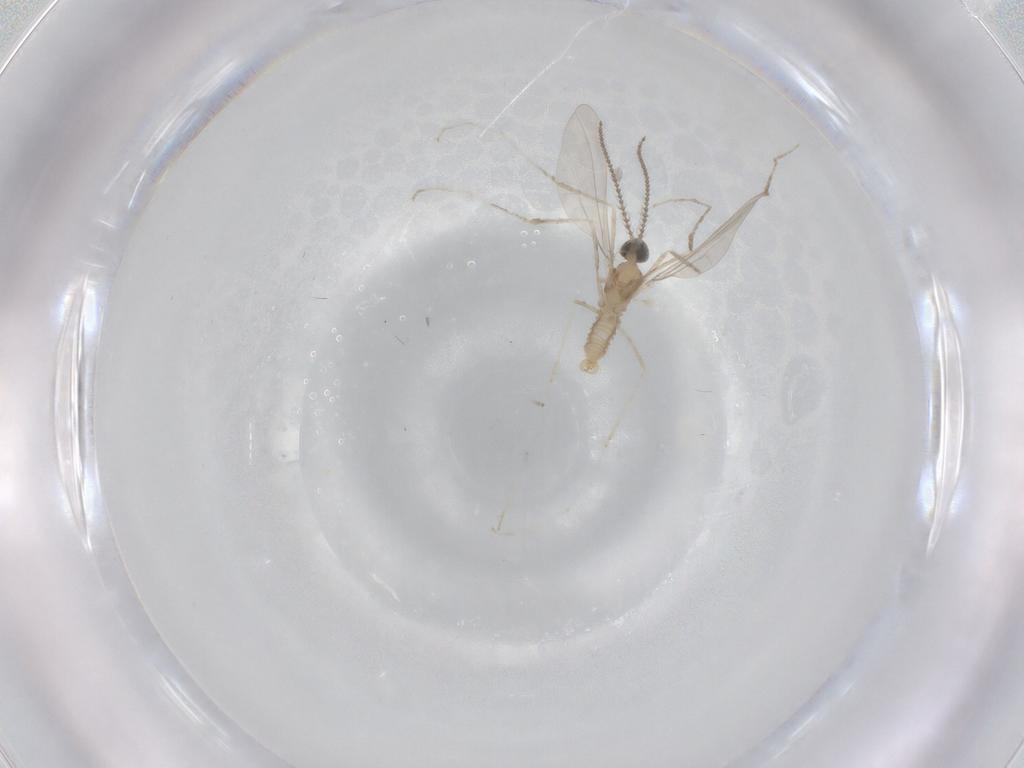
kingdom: Animalia
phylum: Arthropoda
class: Insecta
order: Diptera
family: Cecidomyiidae
